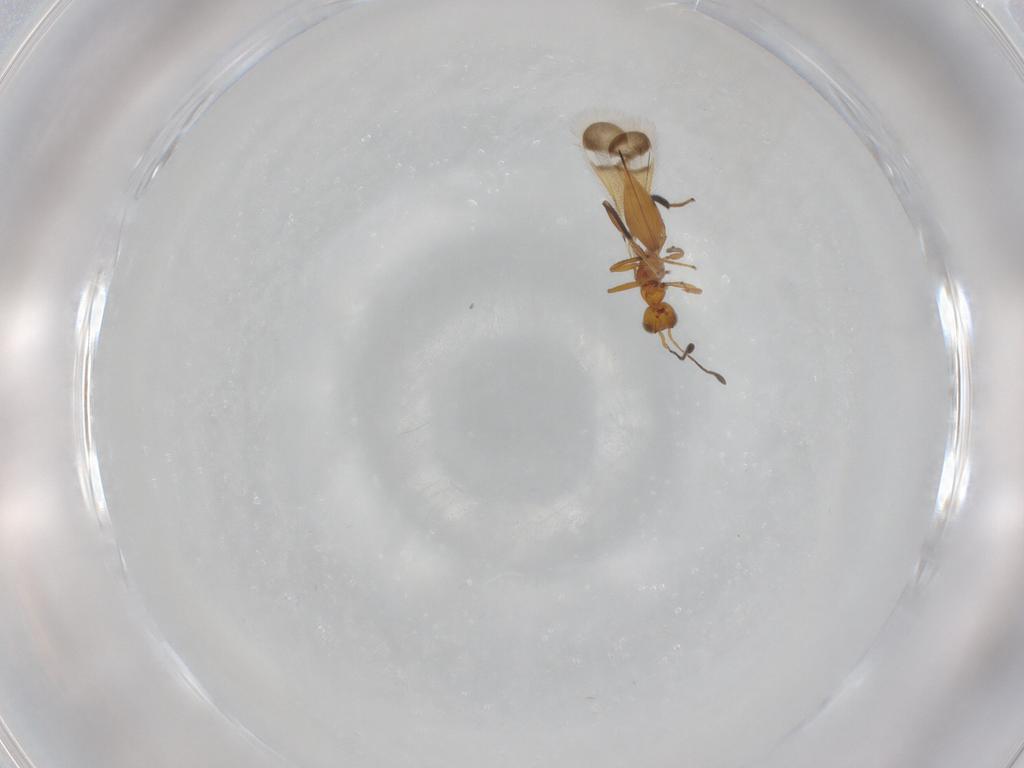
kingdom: Animalia
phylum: Arthropoda
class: Insecta
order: Hymenoptera
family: Mymaridae
